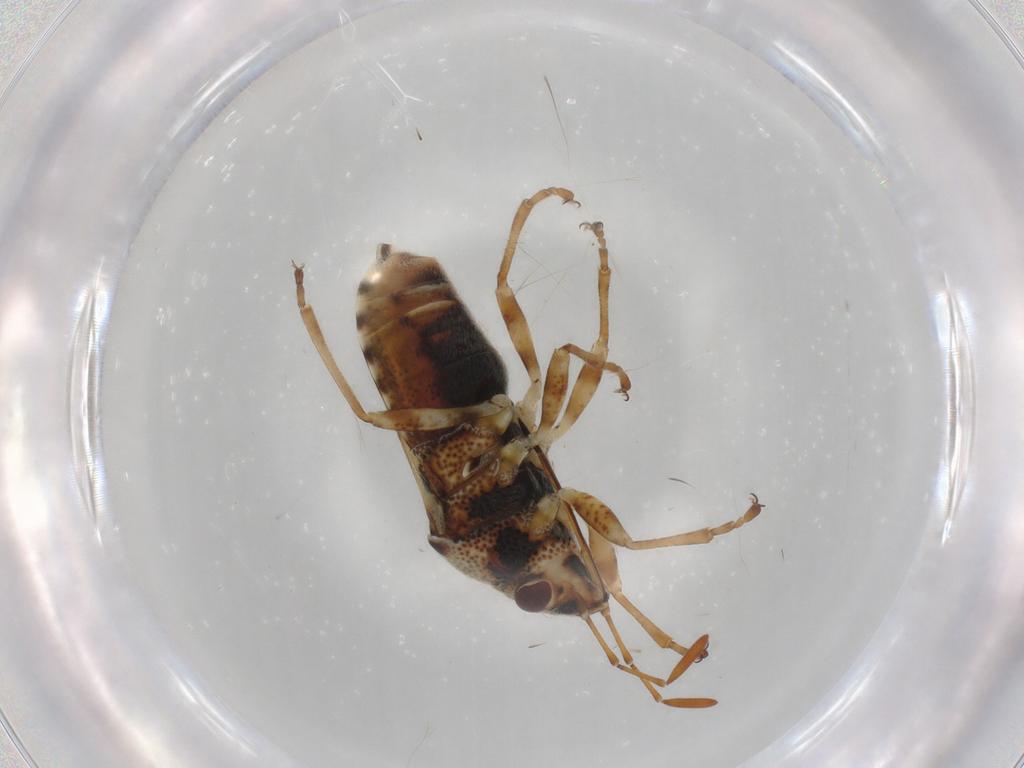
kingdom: Animalia
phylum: Arthropoda
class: Insecta
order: Hemiptera
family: Lygaeidae
